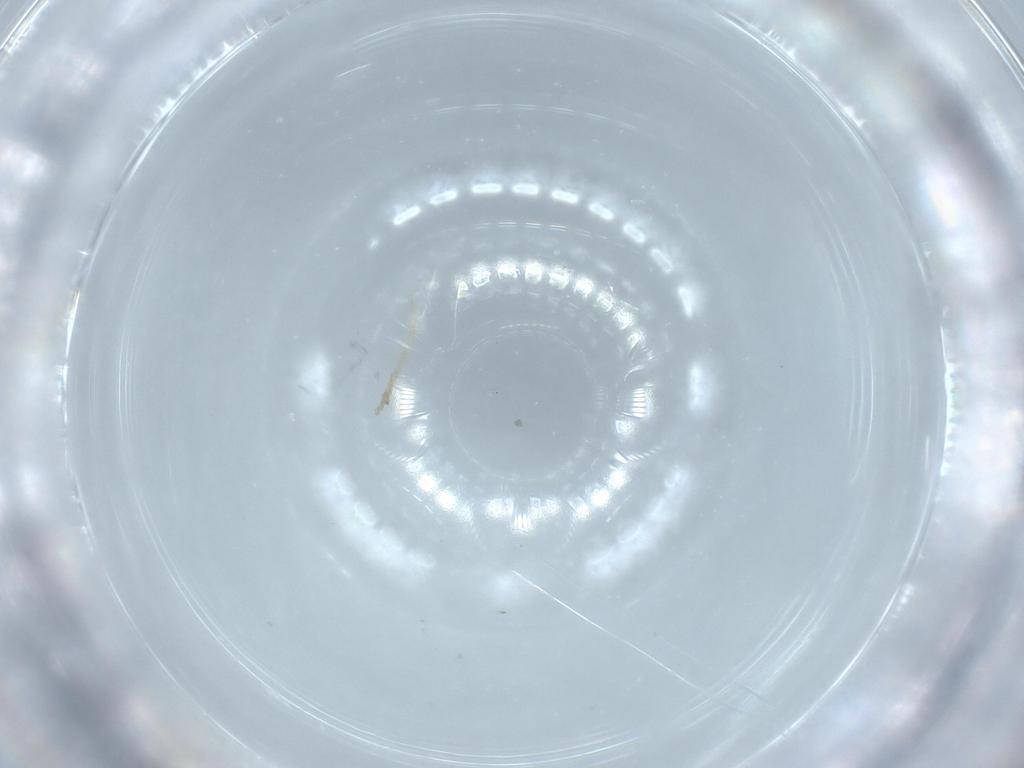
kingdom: Animalia
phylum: Arthropoda
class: Insecta
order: Diptera
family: Cecidomyiidae
